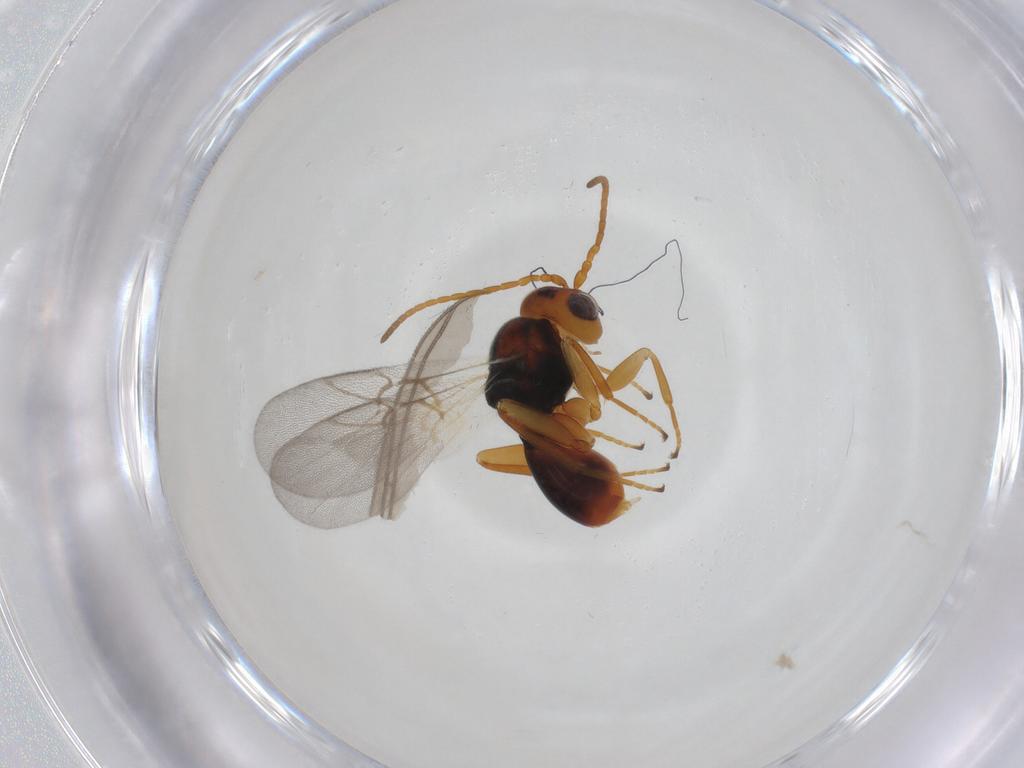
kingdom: Animalia
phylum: Arthropoda
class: Insecta
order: Hymenoptera
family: Cynipidae
